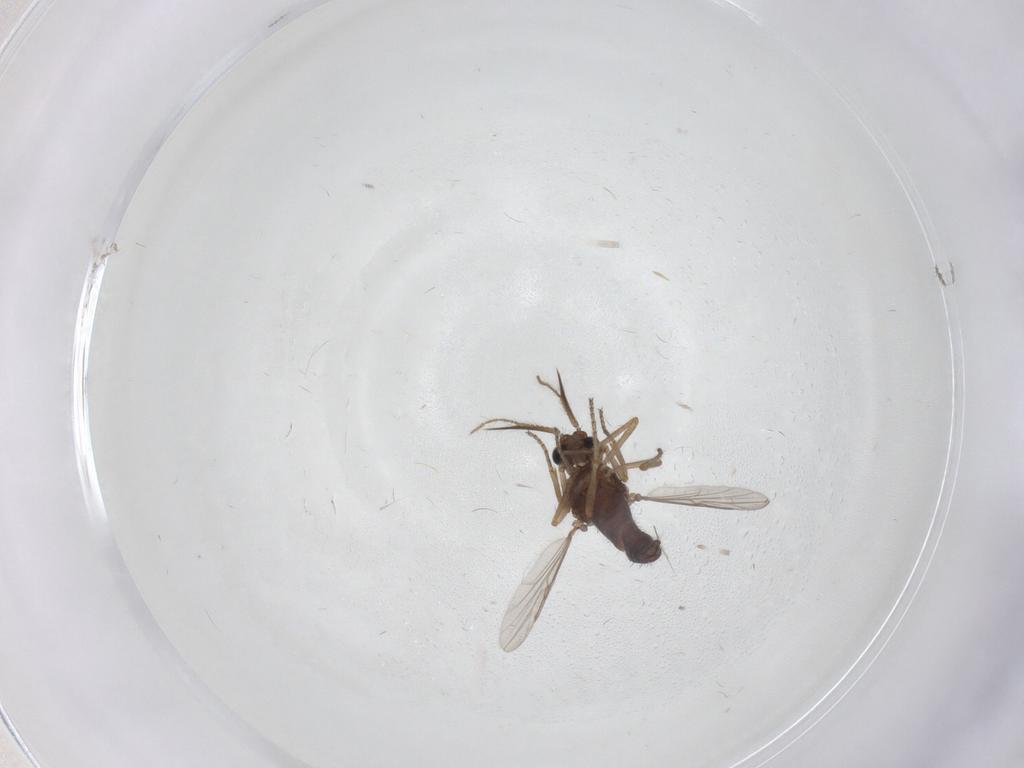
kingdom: Animalia
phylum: Arthropoda
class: Insecta
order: Diptera
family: Ceratopogonidae
